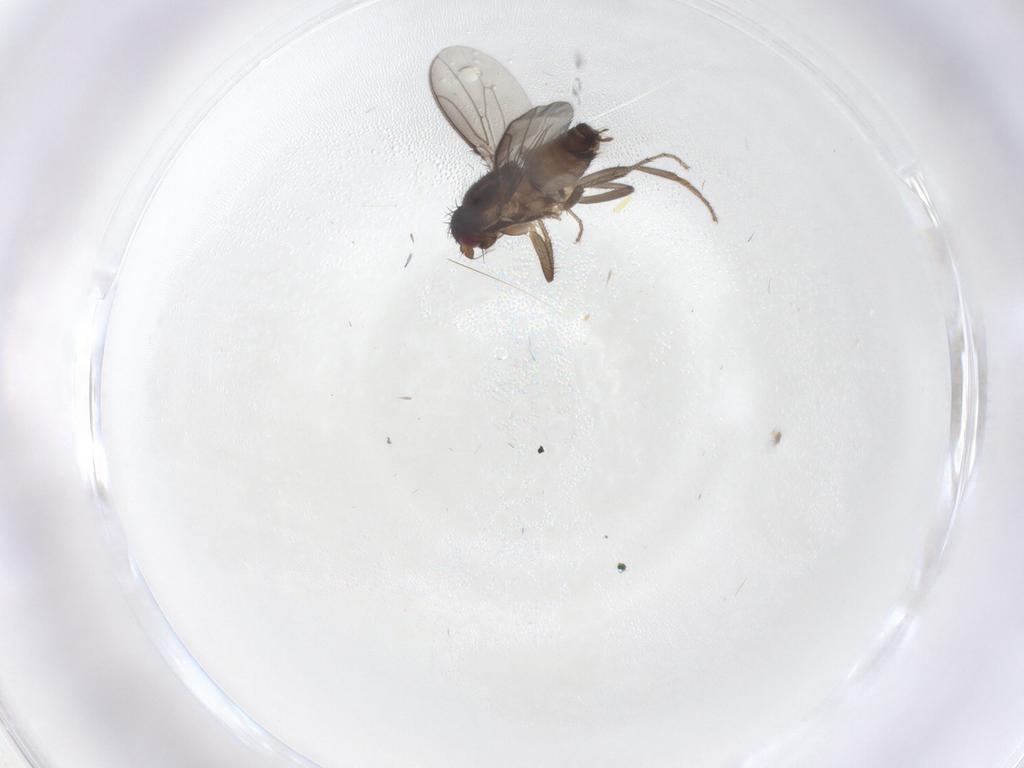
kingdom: Animalia
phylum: Arthropoda
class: Insecta
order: Diptera
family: Sphaeroceridae
